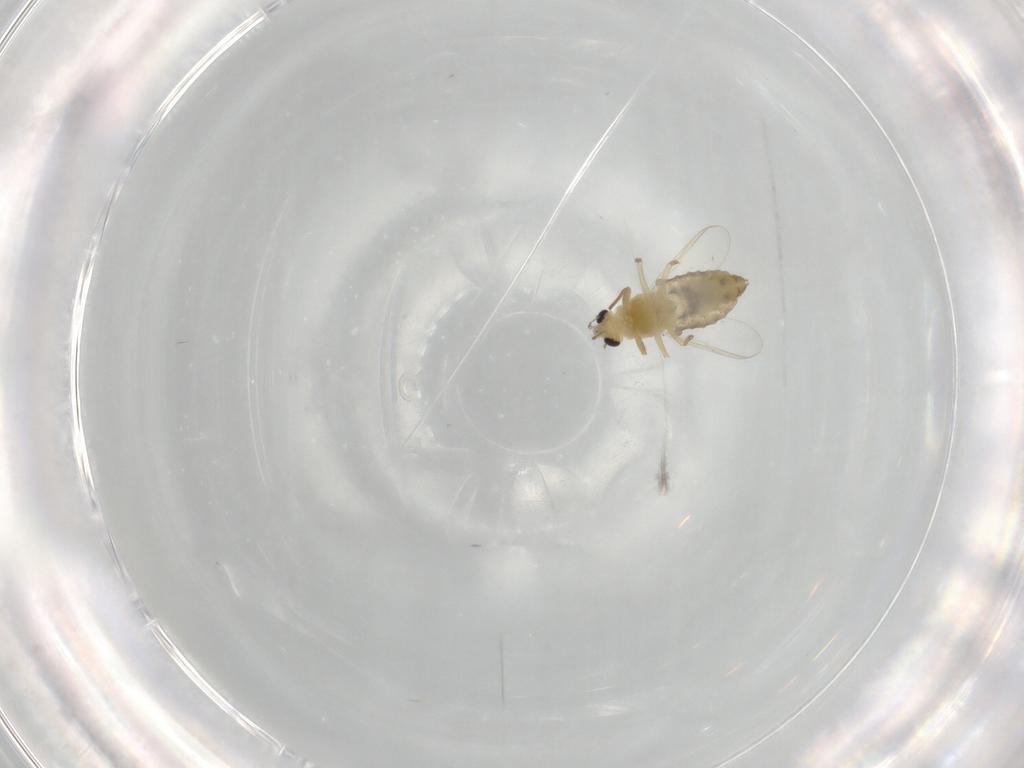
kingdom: Animalia
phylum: Arthropoda
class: Insecta
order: Diptera
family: Chironomidae
